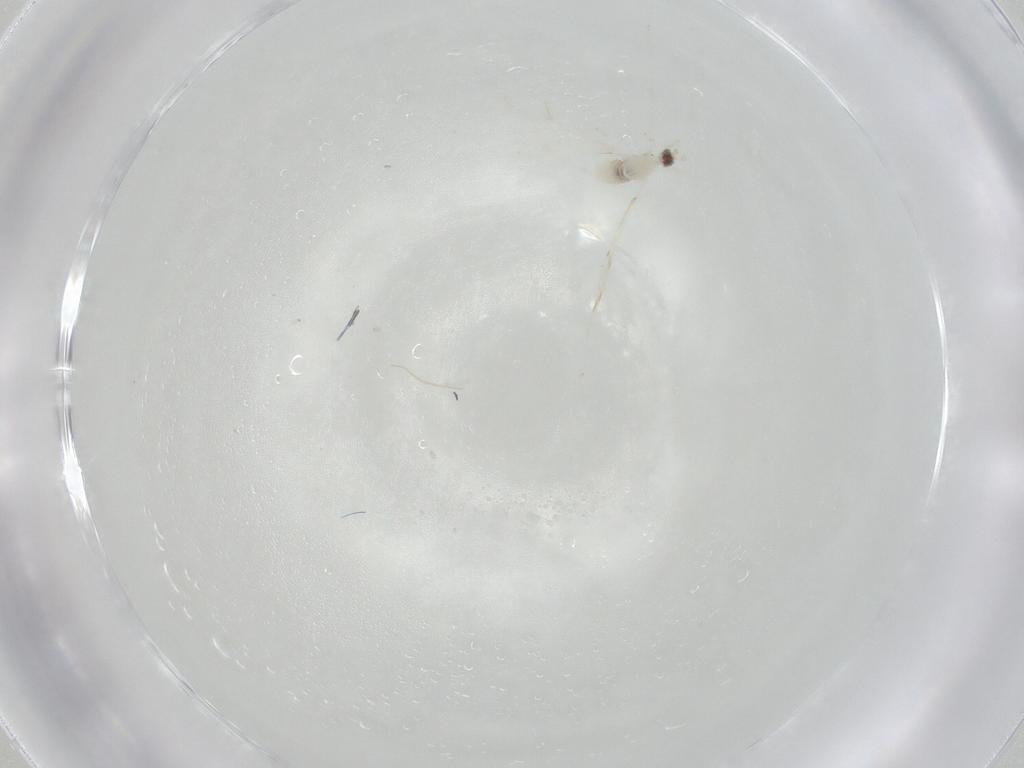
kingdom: Animalia
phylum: Arthropoda
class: Insecta
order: Diptera
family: Cecidomyiidae
